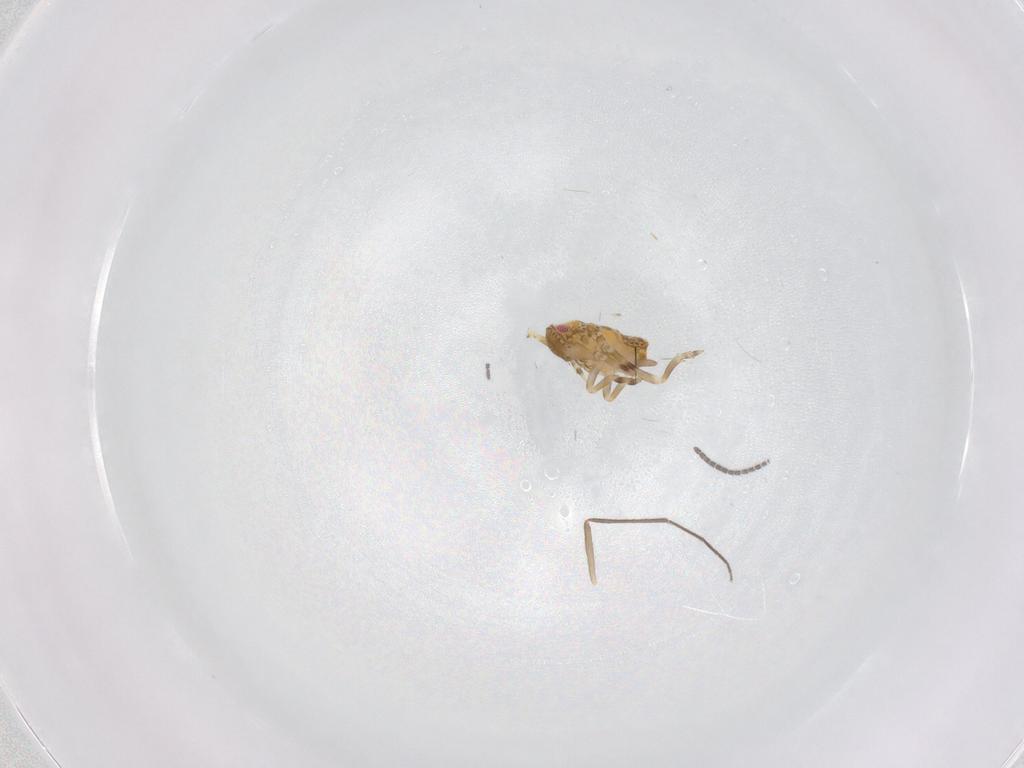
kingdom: Animalia
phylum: Arthropoda
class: Insecta
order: Hemiptera
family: Flatidae
